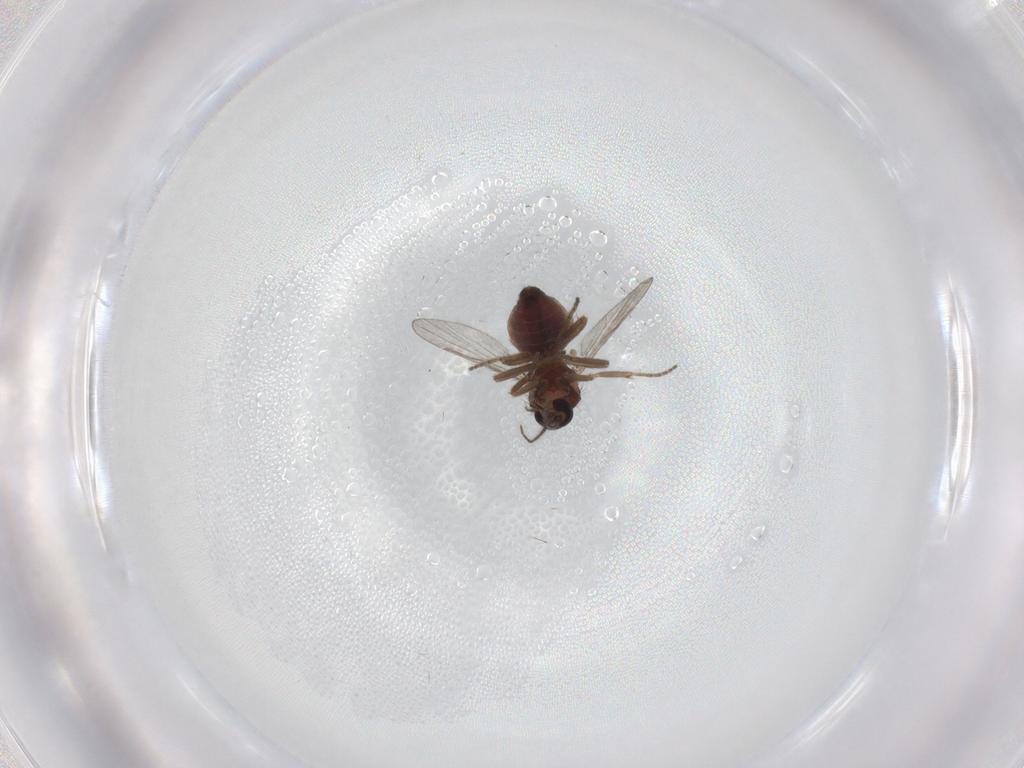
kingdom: Animalia
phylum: Arthropoda
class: Insecta
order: Diptera
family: Ceratopogonidae
